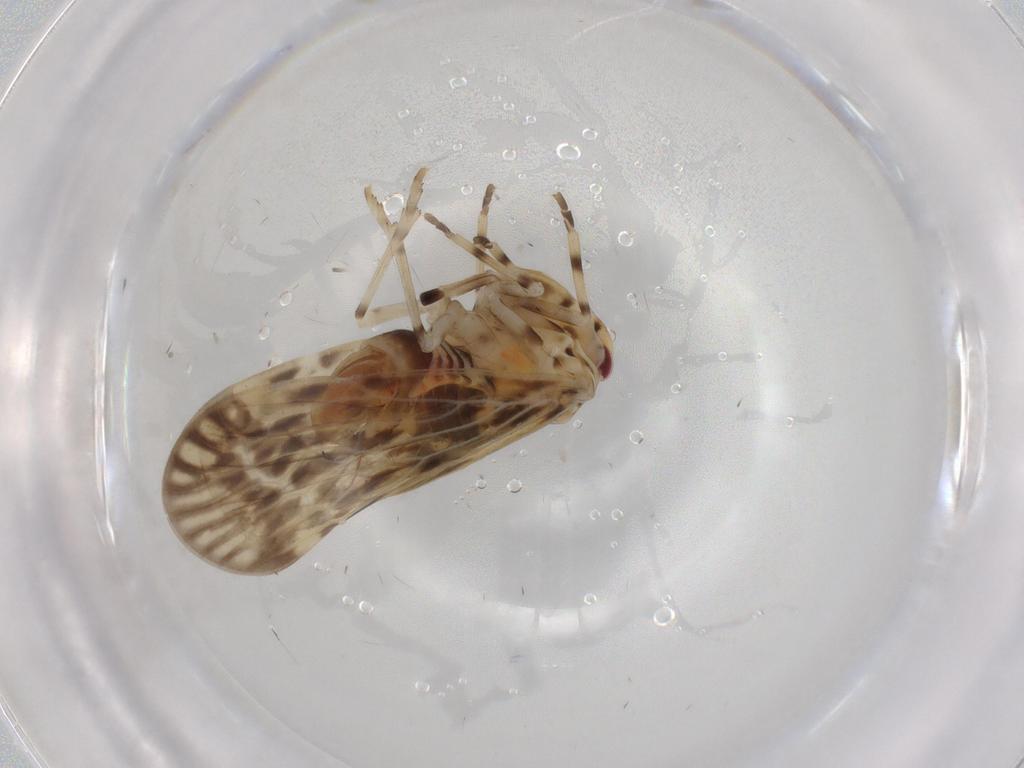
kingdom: Animalia
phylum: Arthropoda
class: Insecta
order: Hemiptera
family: Derbidae
